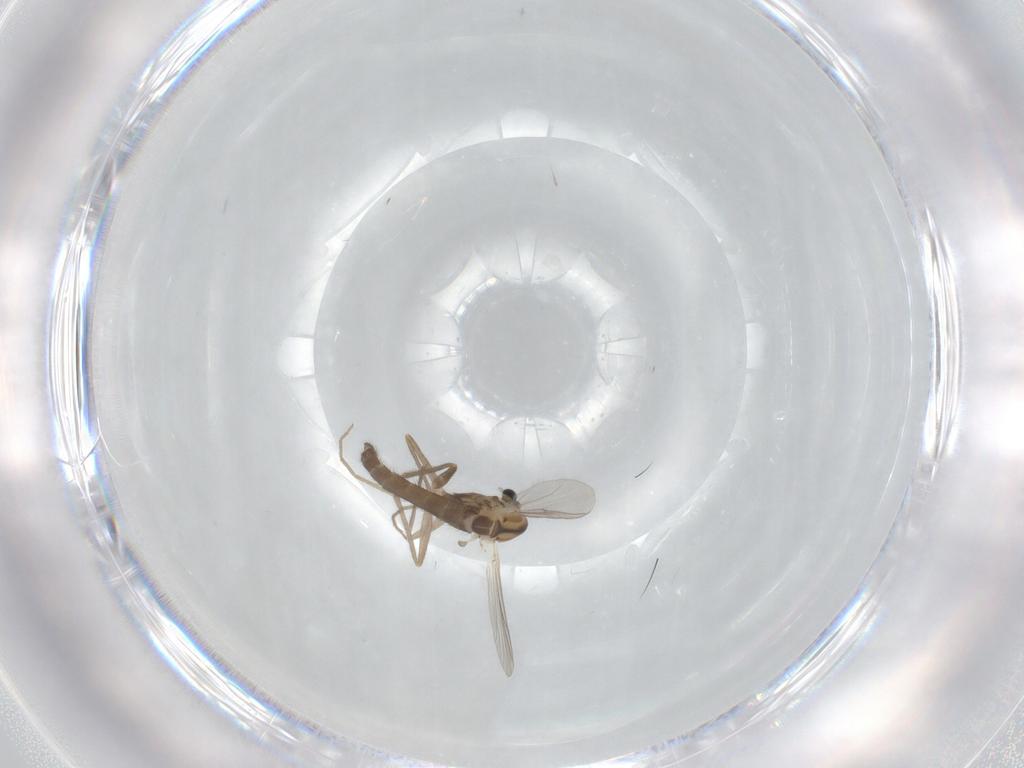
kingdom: Animalia
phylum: Arthropoda
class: Insecta
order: Diptera
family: Chironomidae
